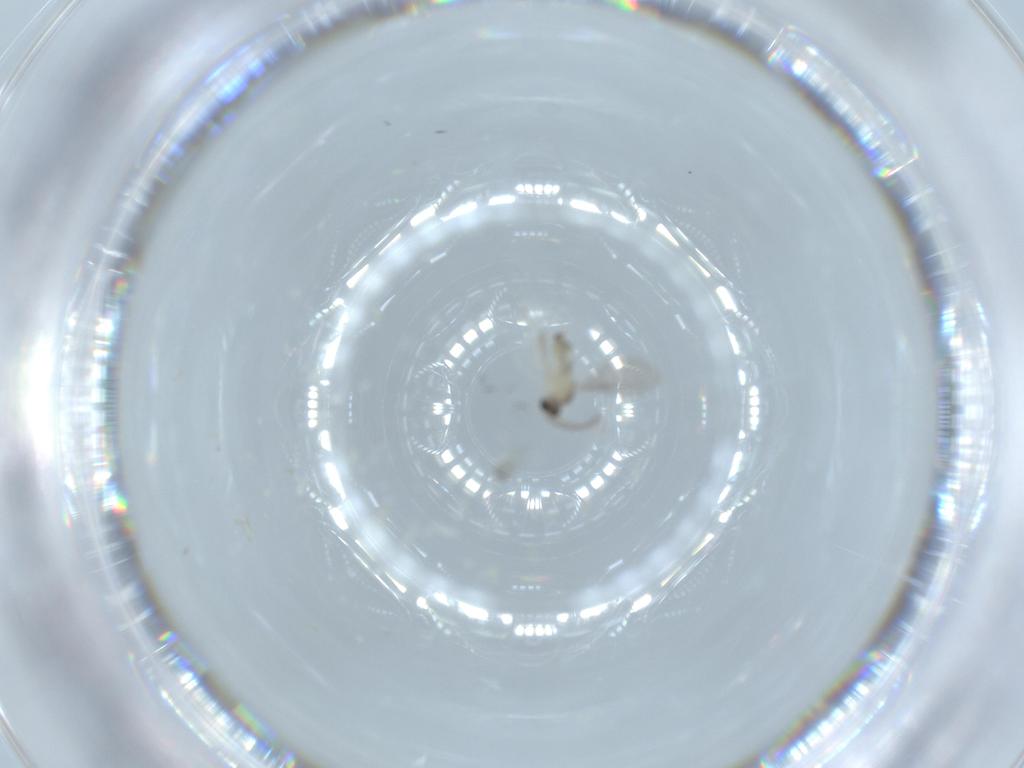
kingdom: Animalia
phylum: Arthropoda
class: Insecta
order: Diptera
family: Cecidomyiidae
